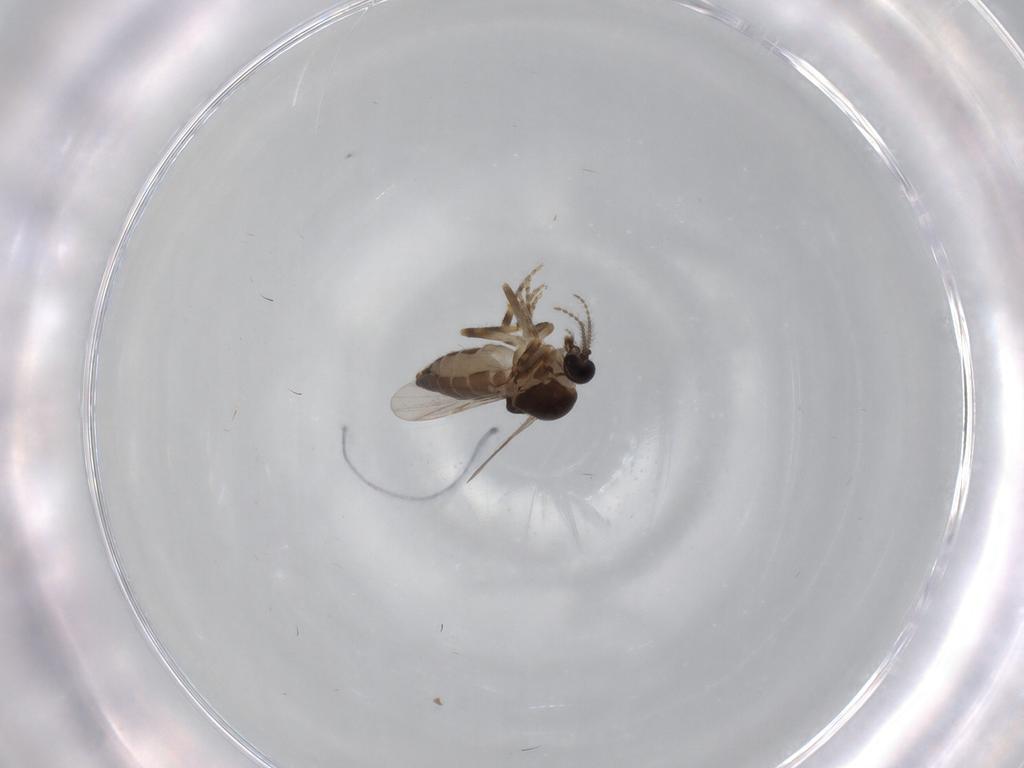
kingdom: Animalia
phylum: Arthropoda
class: Insecta
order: Diptera
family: Ceratopogonidae
